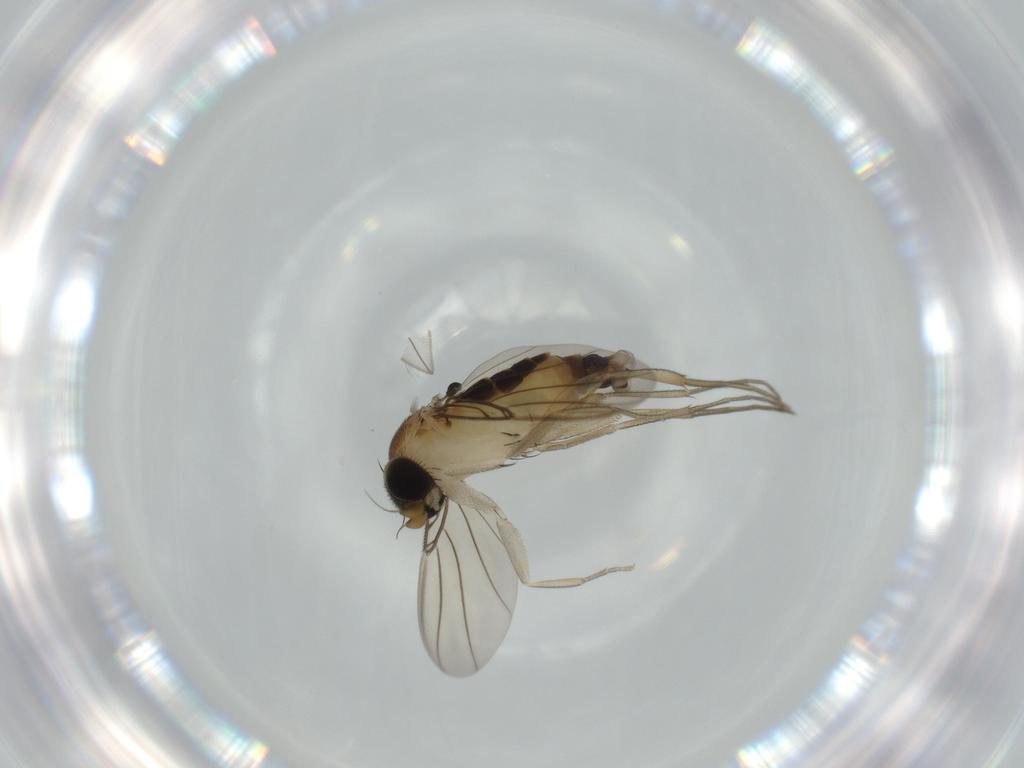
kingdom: Animalia
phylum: Arthropoda
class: Insecta
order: Diptera
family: Phoridae
